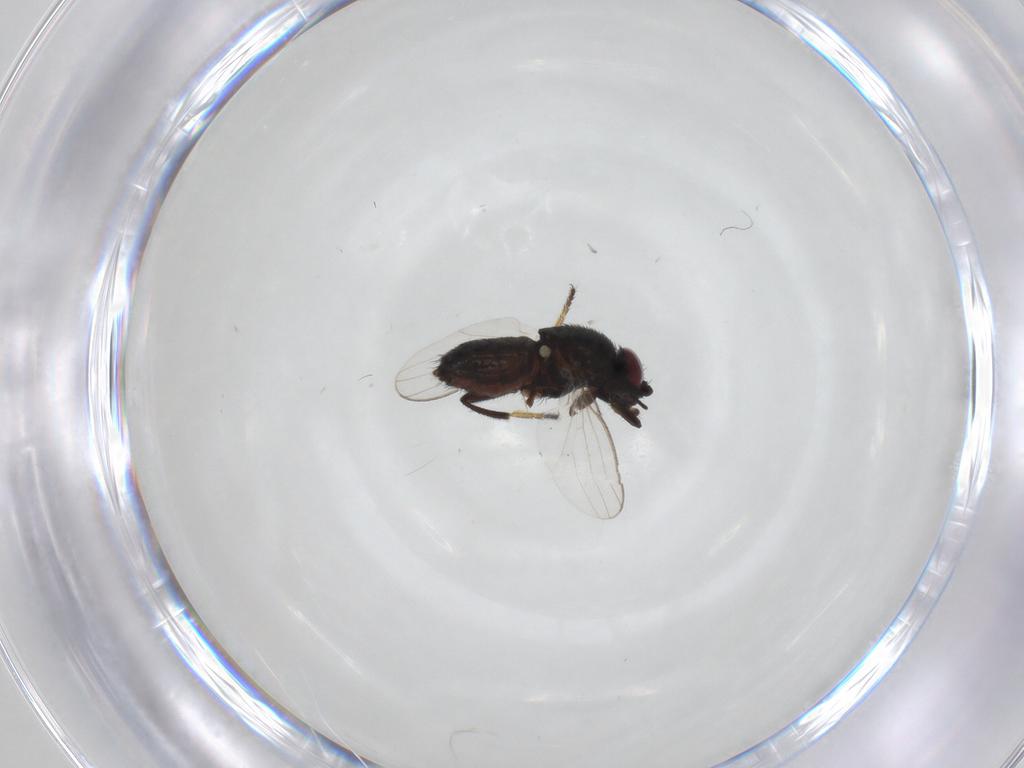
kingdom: Animalia
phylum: Arthropoda
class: Insecta
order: Diptera
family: Milichiidae
